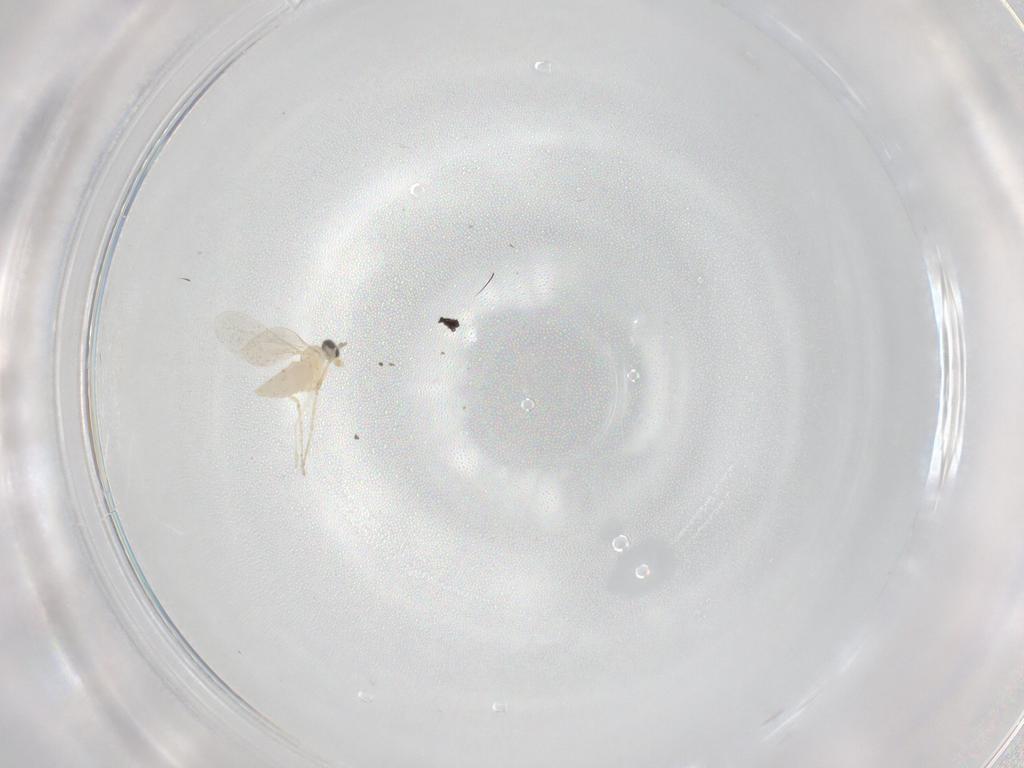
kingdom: Animalia
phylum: Arthropoda
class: Insecta
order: Diptera
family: Cecidomyiidae
